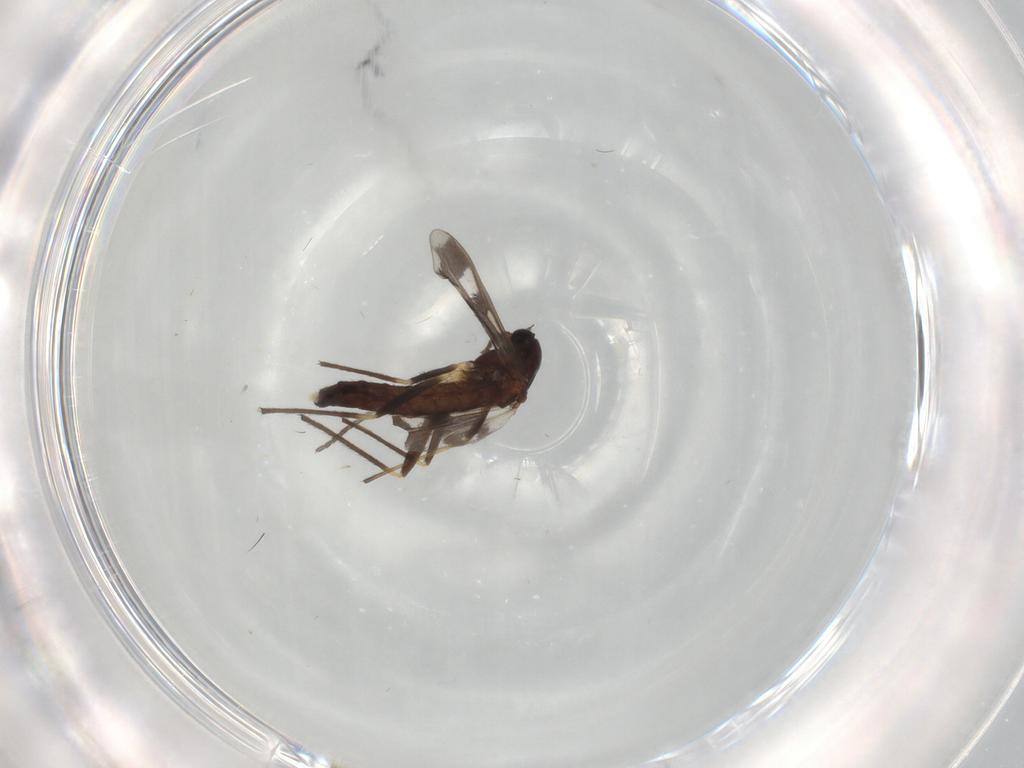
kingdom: Animalia
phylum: Arthropoda
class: Insecta
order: Diptera
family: Chironomidae
